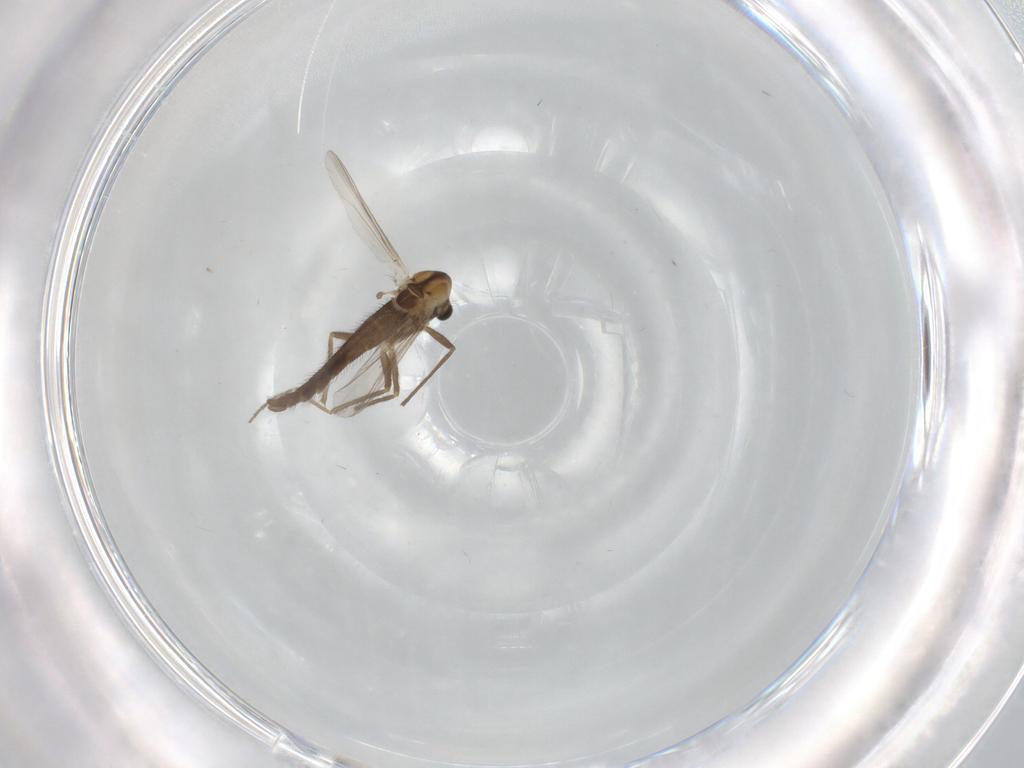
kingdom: Animalia
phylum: Arthropoda
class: Insecta
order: Diptera
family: Chironomidae
